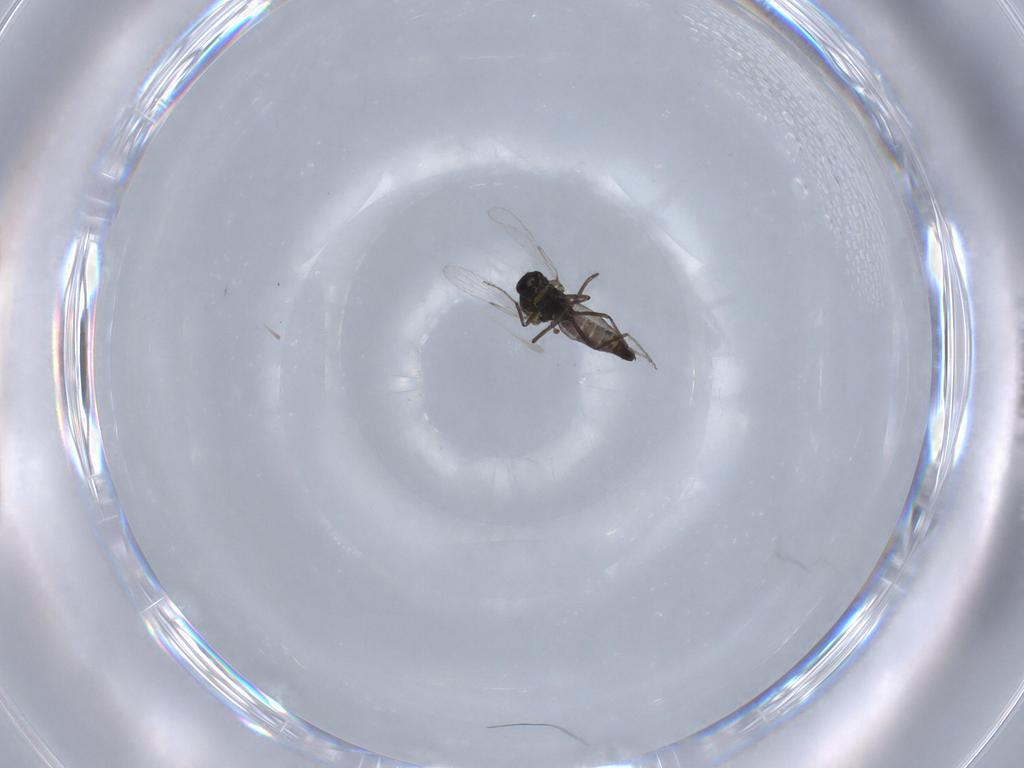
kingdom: Animalia
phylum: Arthropoda
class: Insecta
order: Diptera
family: Ceratopogonidae
